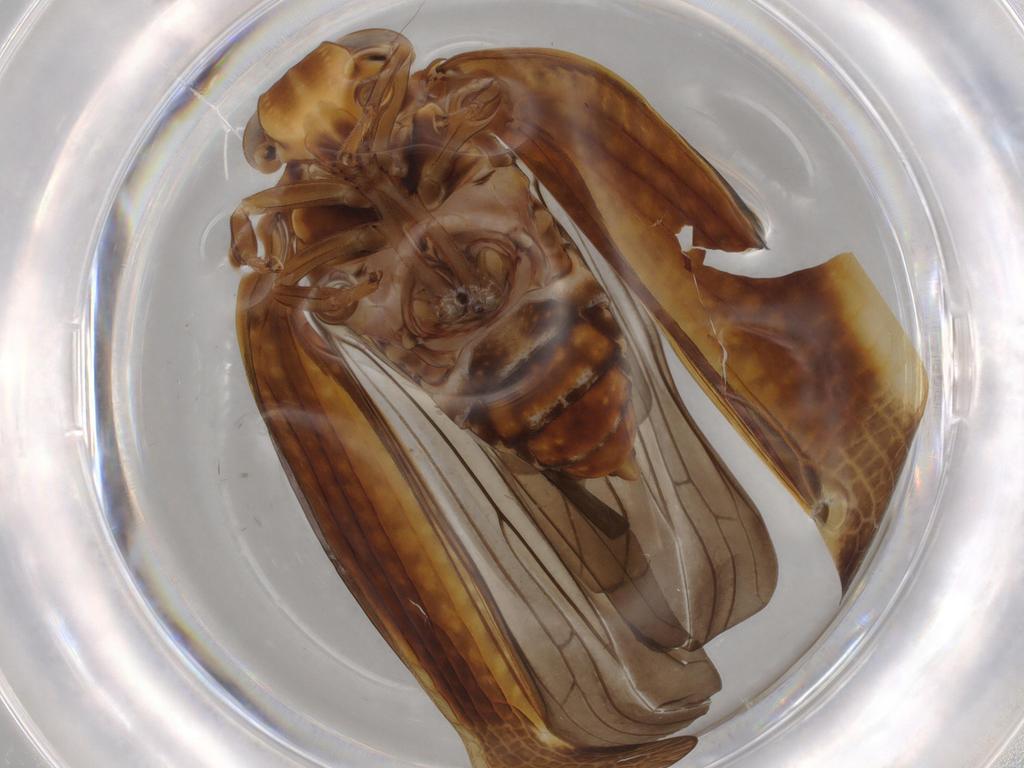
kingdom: Animalia
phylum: Arthropoda
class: Insecta
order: Hemiptera
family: Nogodinidae
